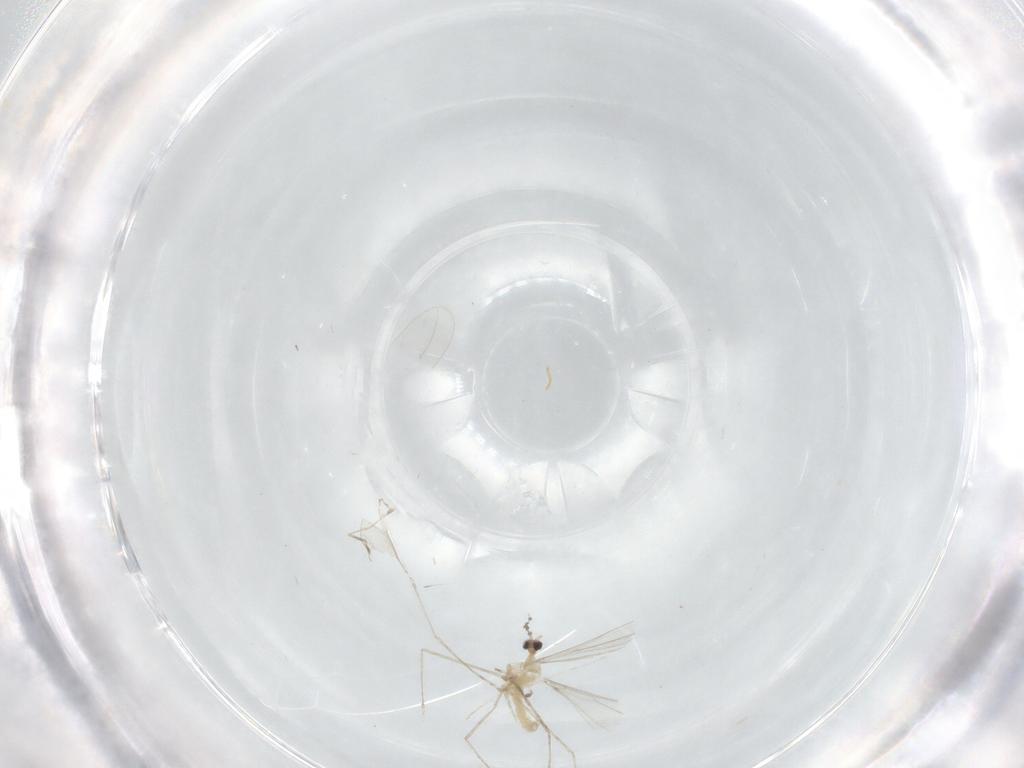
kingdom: Animalia
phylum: Arthropoda
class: Insecta
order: Diptera
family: Cecidomyiidae
